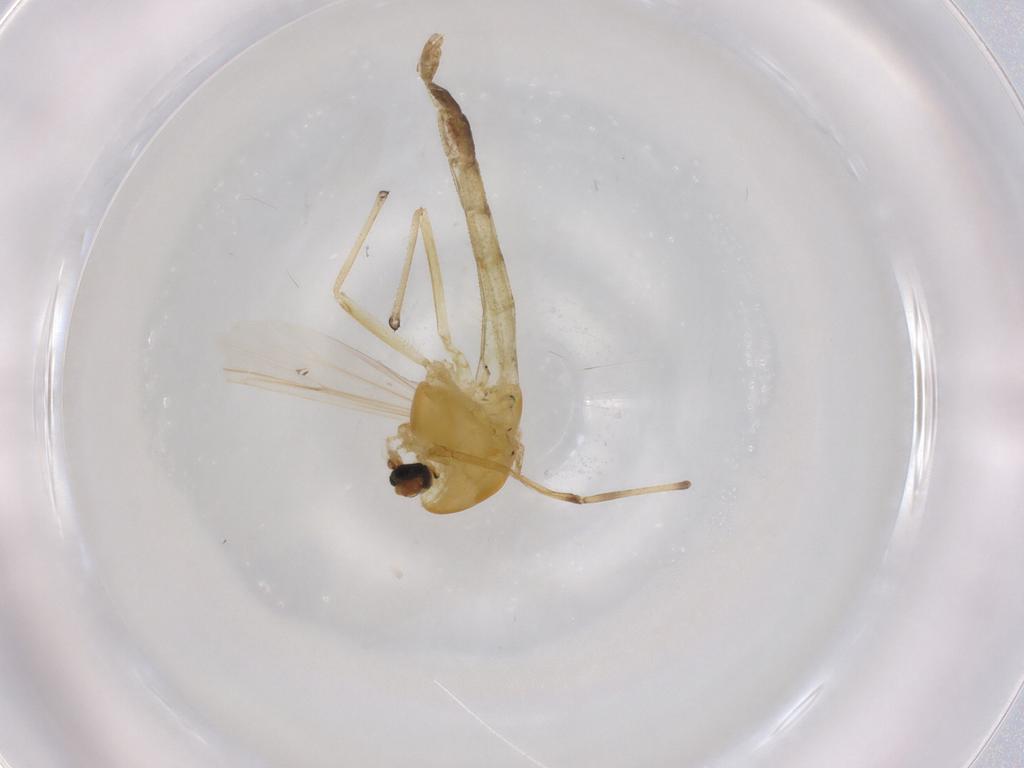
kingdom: Animalia
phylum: Arthropoda
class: Insecta
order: Diptera
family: Chironomidae
